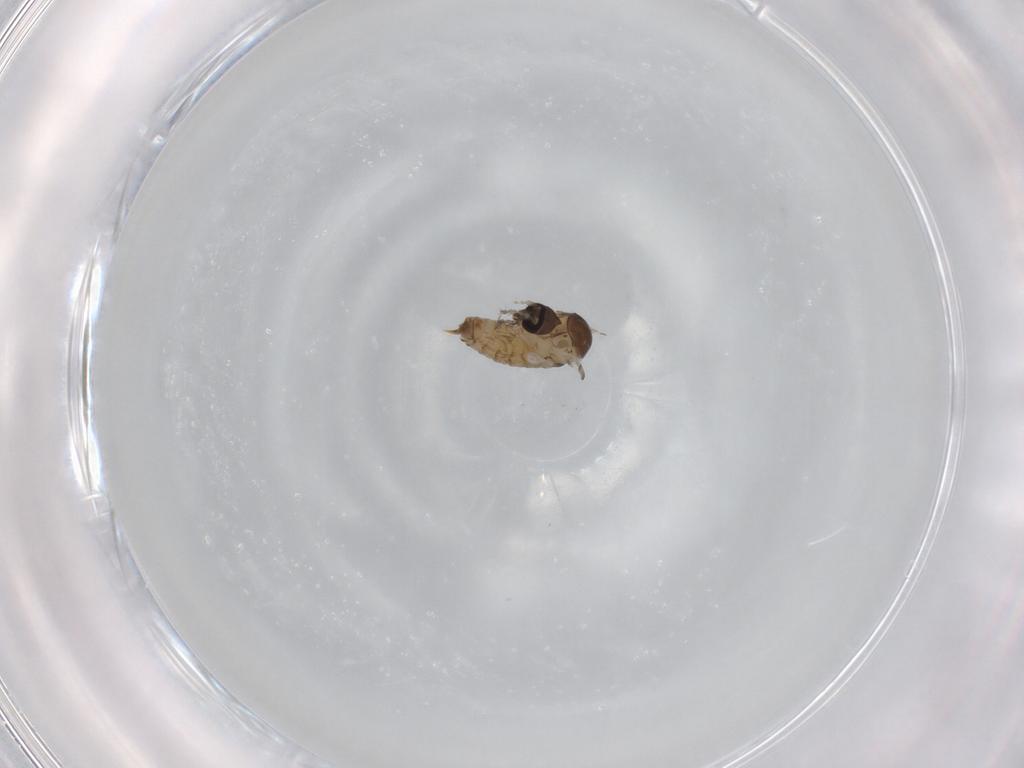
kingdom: Animalia
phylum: Arthropoda
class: Insecta
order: Diptera
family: Psychodidae
